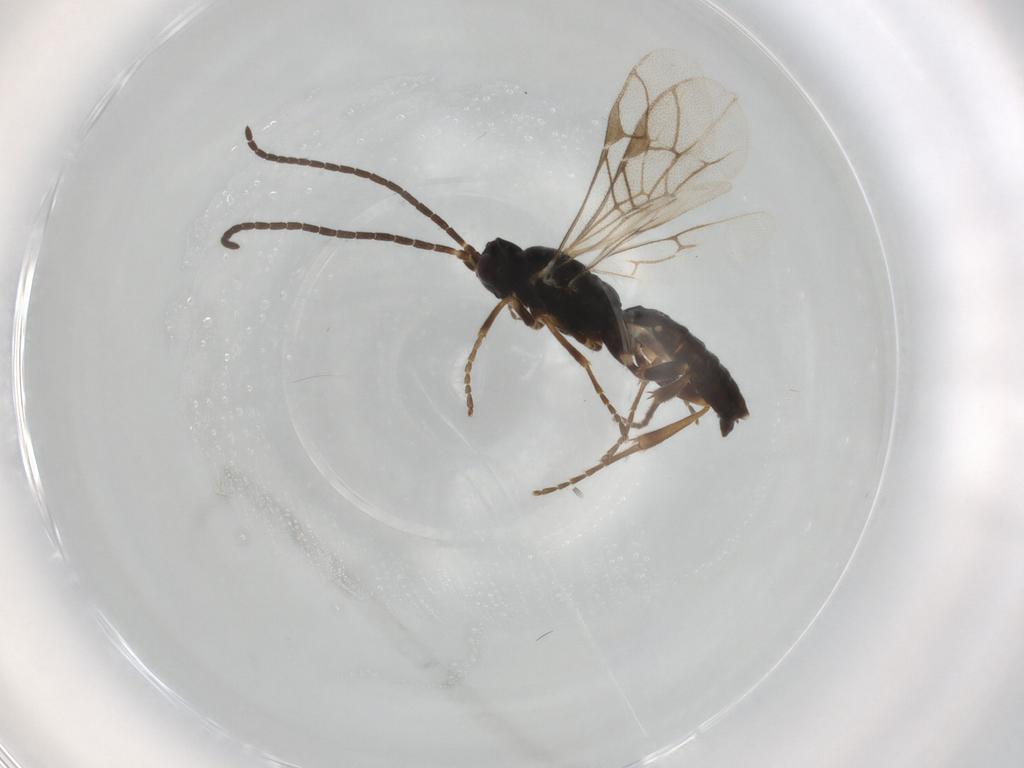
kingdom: Animalia
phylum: Arthropoda
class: Insecta
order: Hymenoptera
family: Ichneumonidae
